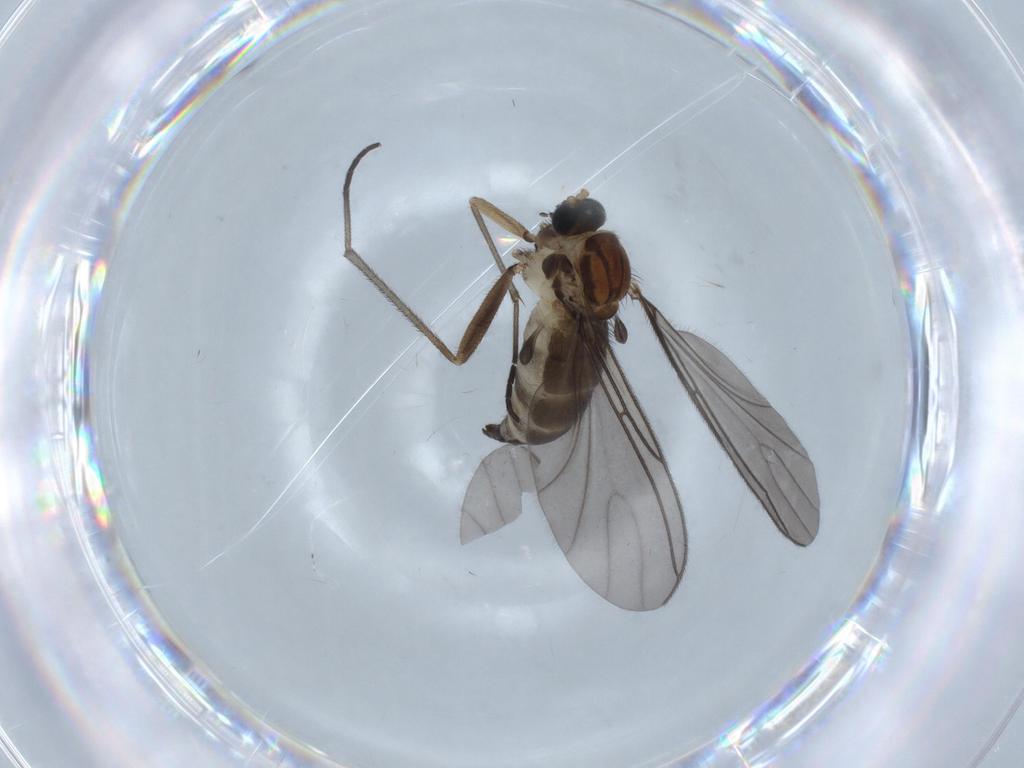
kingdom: Animalia
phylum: Arthropoda
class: Insecta
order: Diptera
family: Sciaridae
